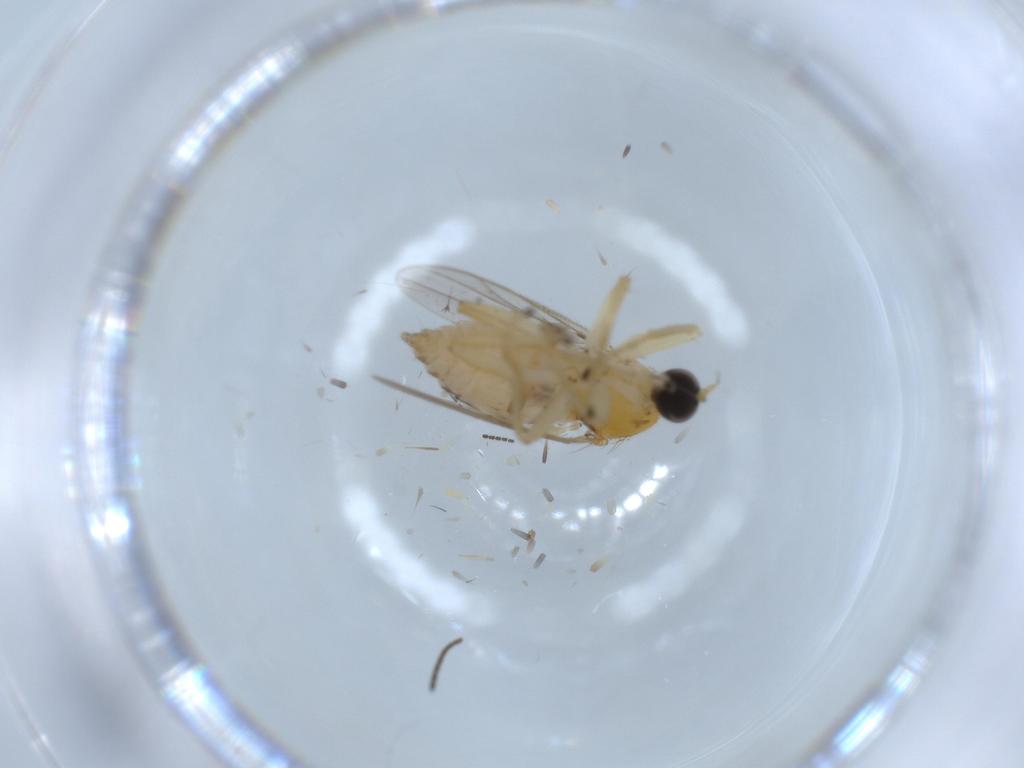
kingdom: Animalia
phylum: Arthropoda
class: Insecta
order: Diptera
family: Hybotidae
